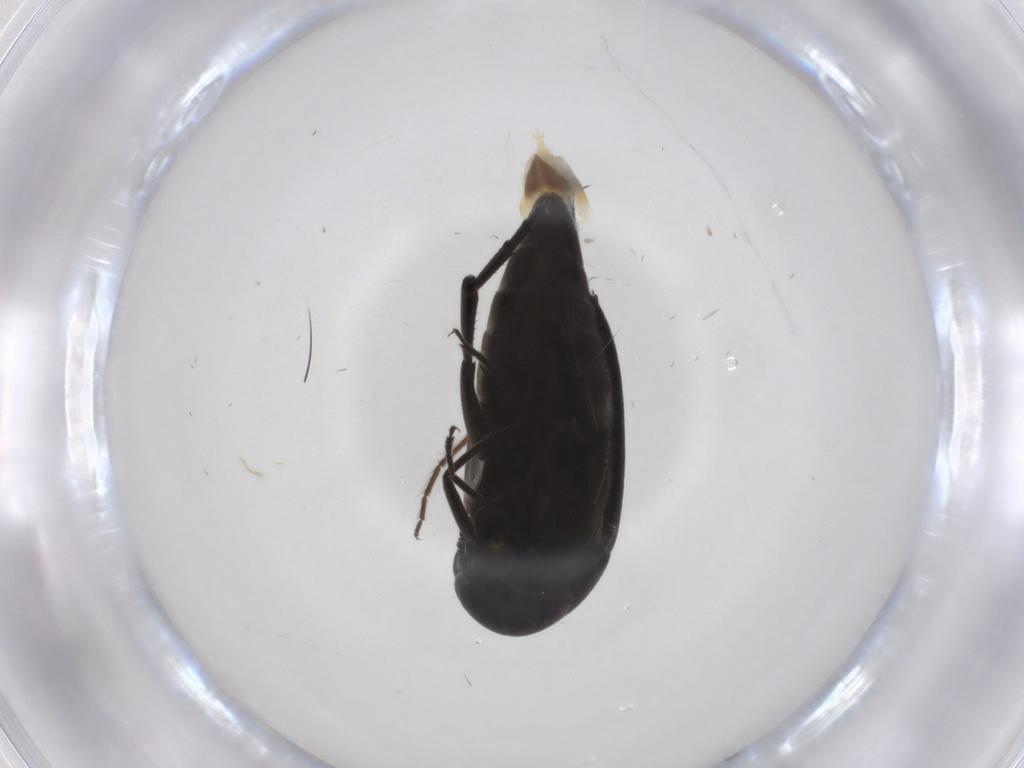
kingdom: Animalia
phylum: Arthropoda
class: Insecta
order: Coleoptera
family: Mordellidae
